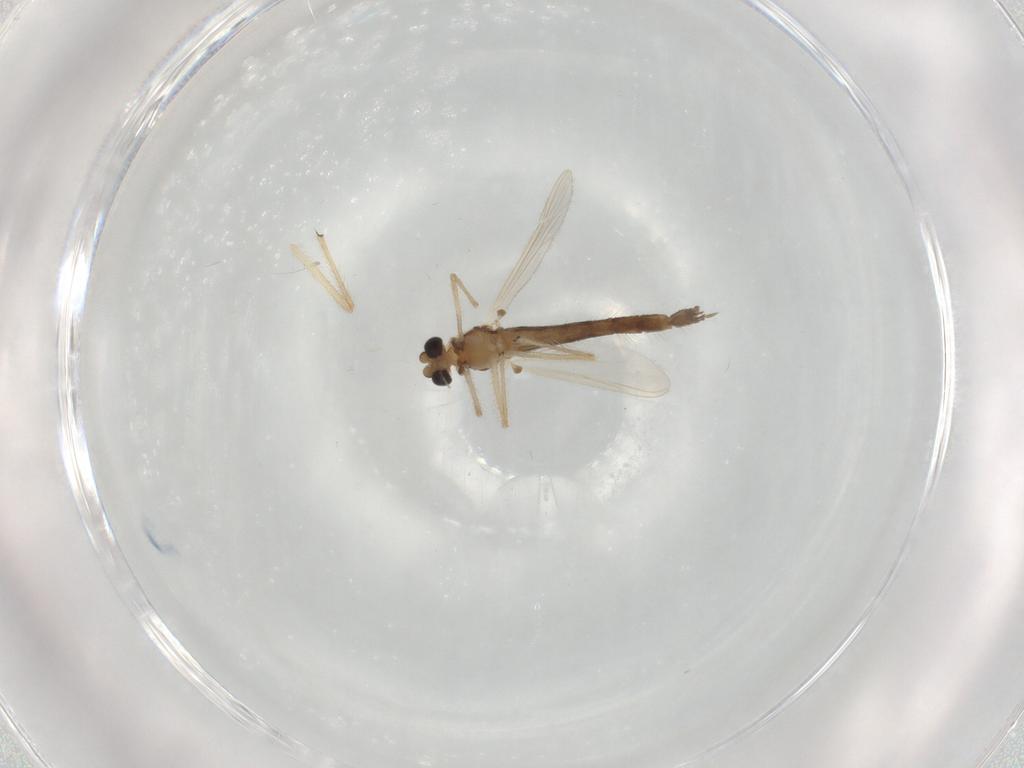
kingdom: Animalia
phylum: Arthropoda
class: Insecta
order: Diptera
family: Chironomidae
